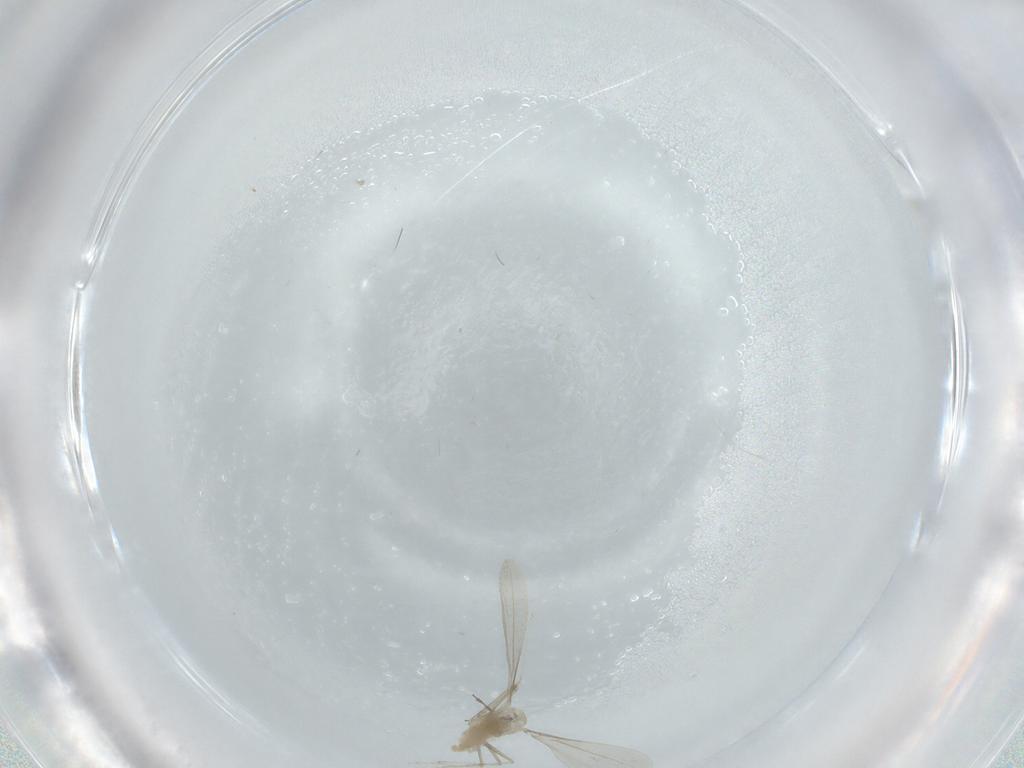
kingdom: Animalia
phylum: Arthropoda
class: Insecta
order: Diptera
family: Cecidomyiidae
